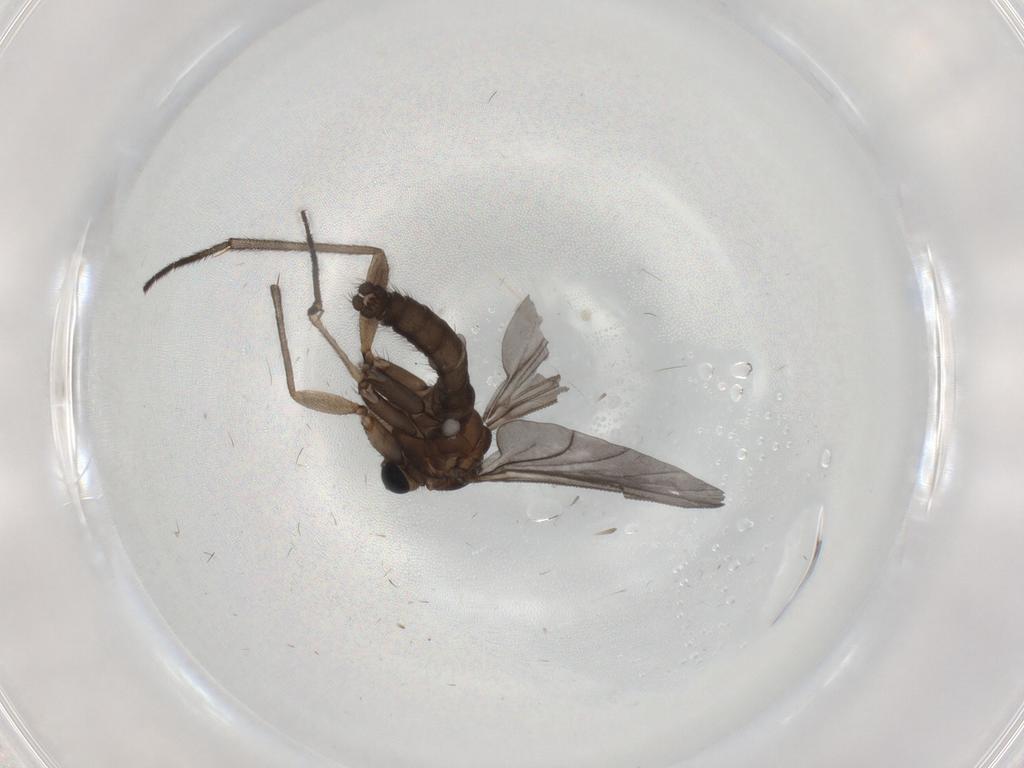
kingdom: Animalia
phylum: Arthropoda
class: Insecta
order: Diptera
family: Sciaridae
